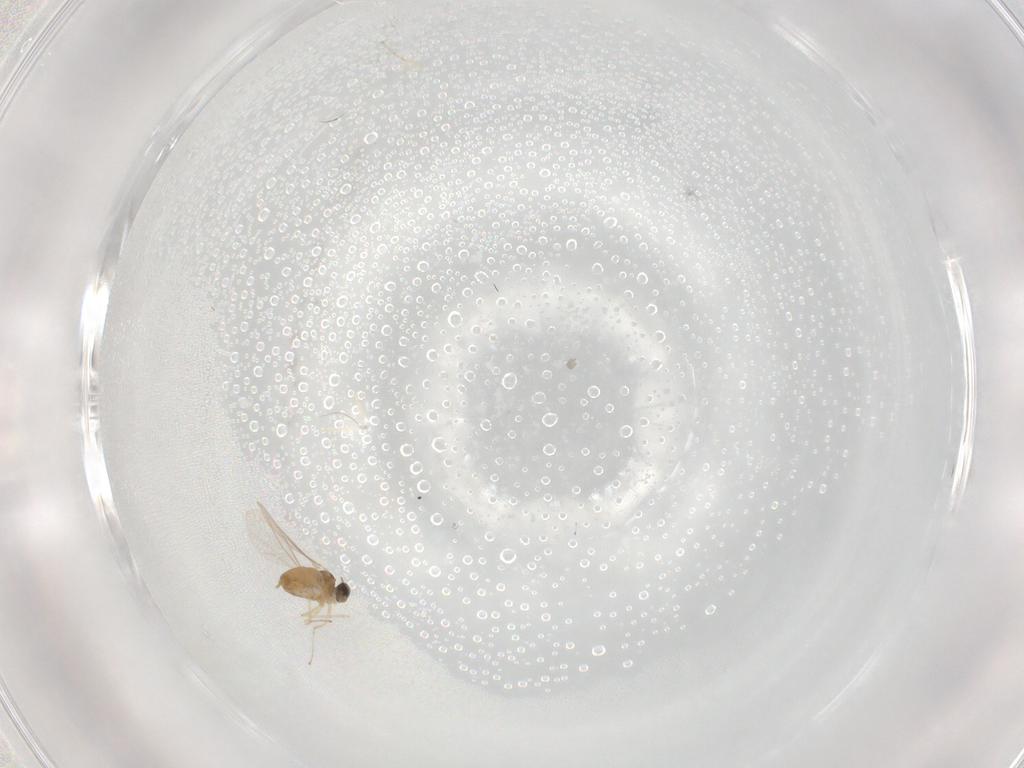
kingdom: Animalia
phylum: Arthropoda
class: Insecta
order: Diptera
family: Cecidomyiidae
